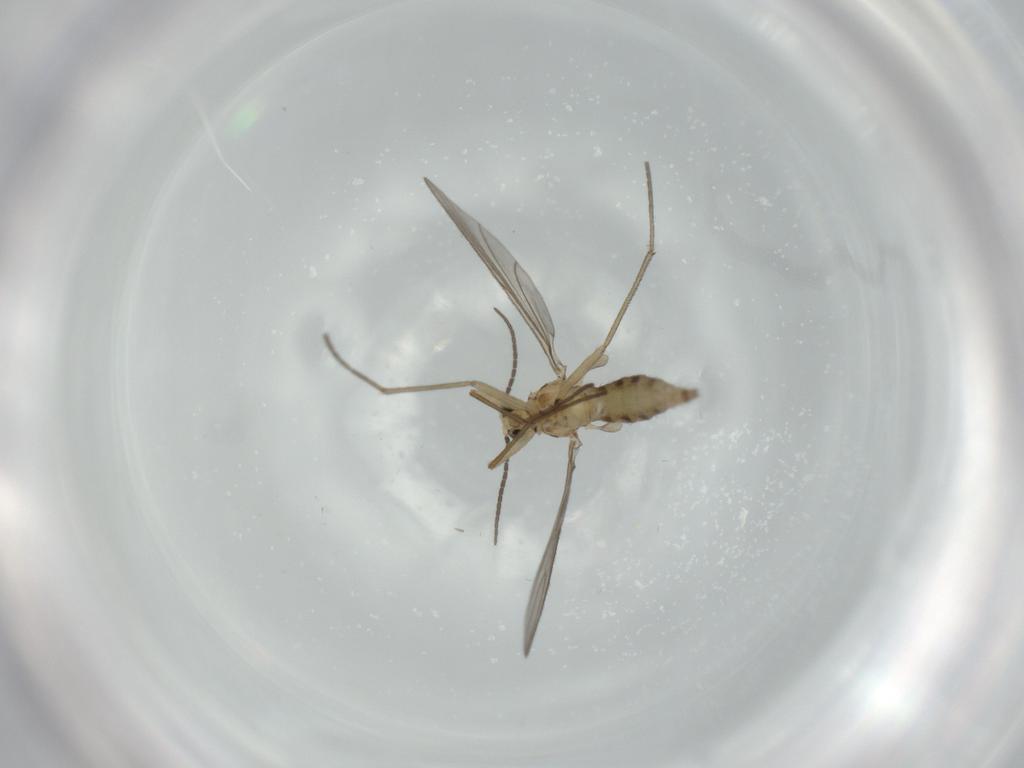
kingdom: Animalia
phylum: Arthropoda
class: Insecta
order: Diptera
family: Sciaridae
